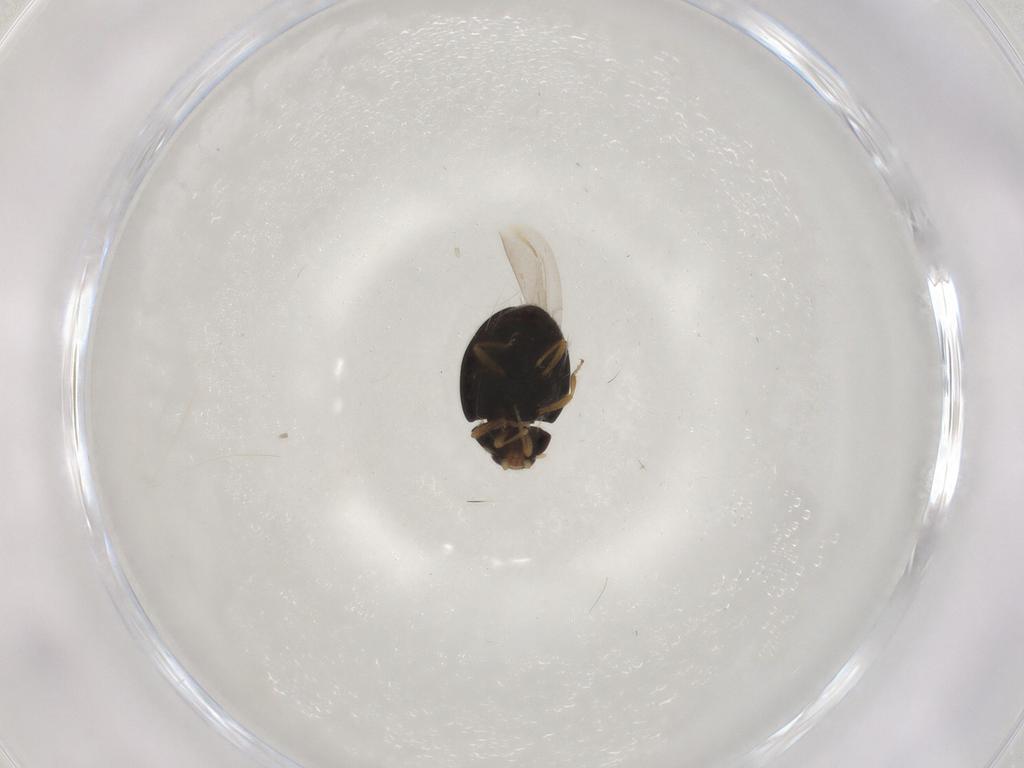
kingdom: Animalia
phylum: Arthropoda
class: Insecta
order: Coleoptera
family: Coccinellidae
